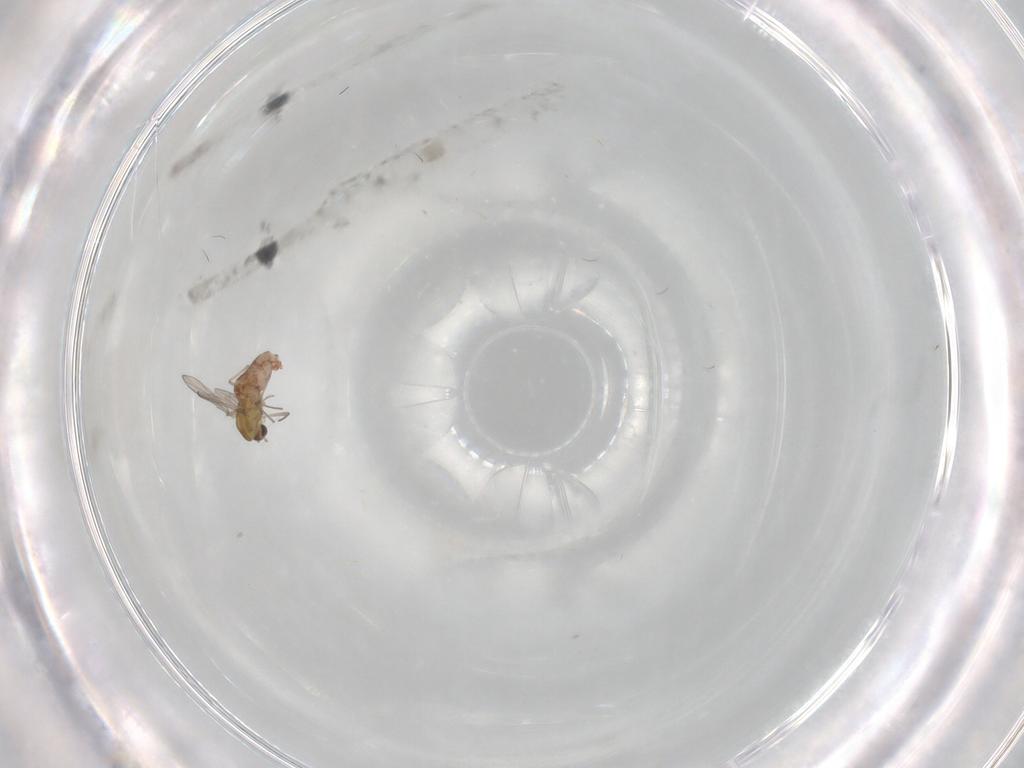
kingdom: Animalia
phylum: Arthropoda
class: Insecta
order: Diptera
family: Chironomidae
